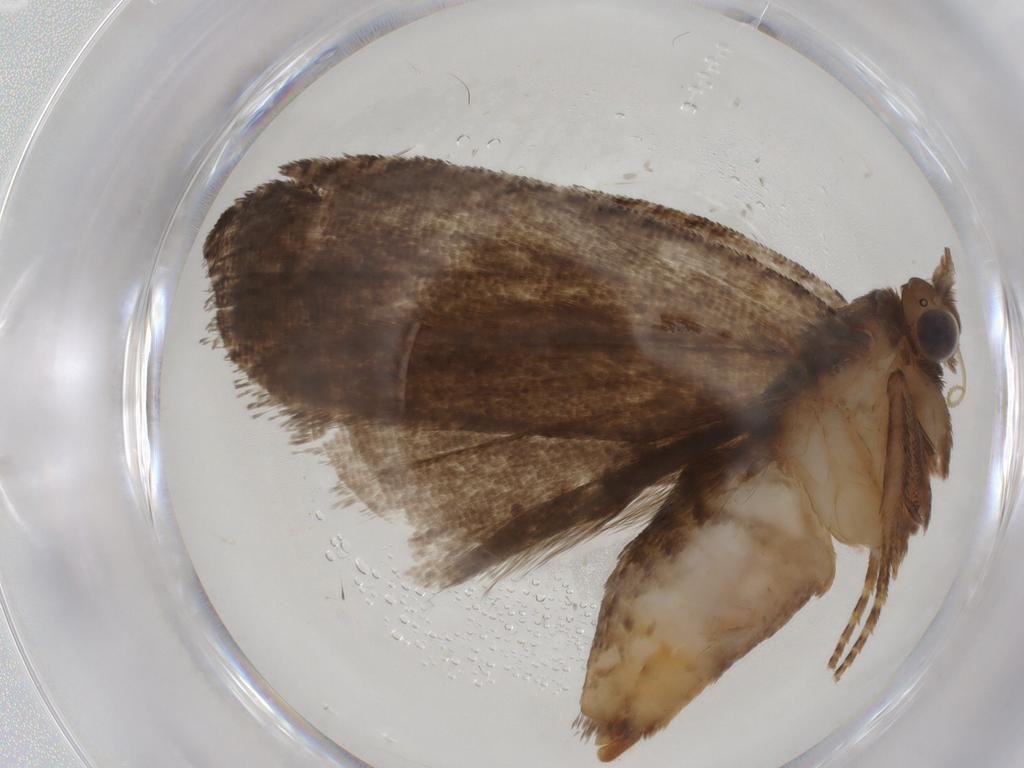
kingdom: Animalia
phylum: Arthropoda
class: Insecta
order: Lepidoptera
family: Tortricidae
